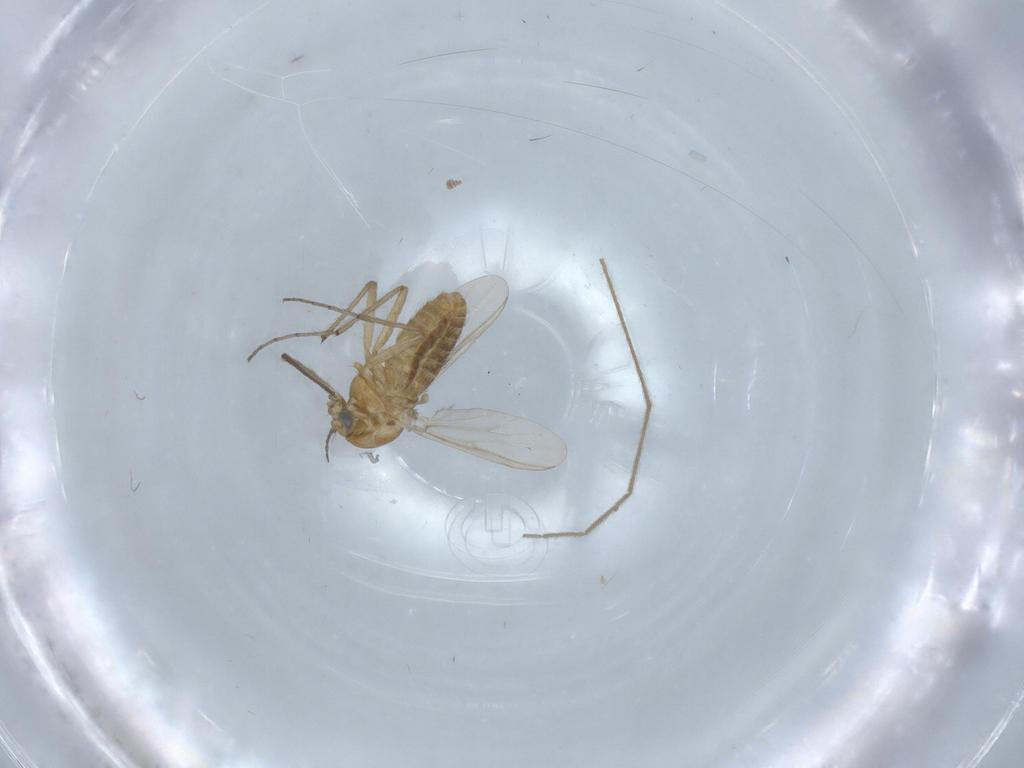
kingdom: Animalia
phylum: Arthropoda
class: Insecta
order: Diptera
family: Chironomidae
